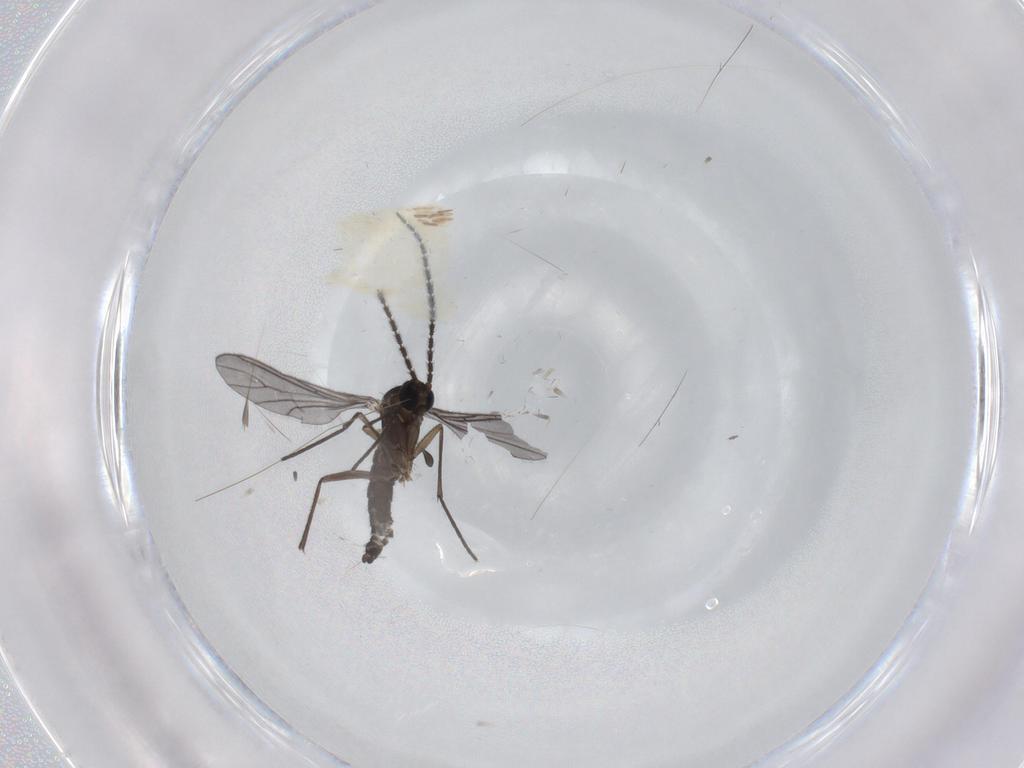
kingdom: Animalia
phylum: Arthropoda
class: Insecta
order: Diptera
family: Sciaridae
